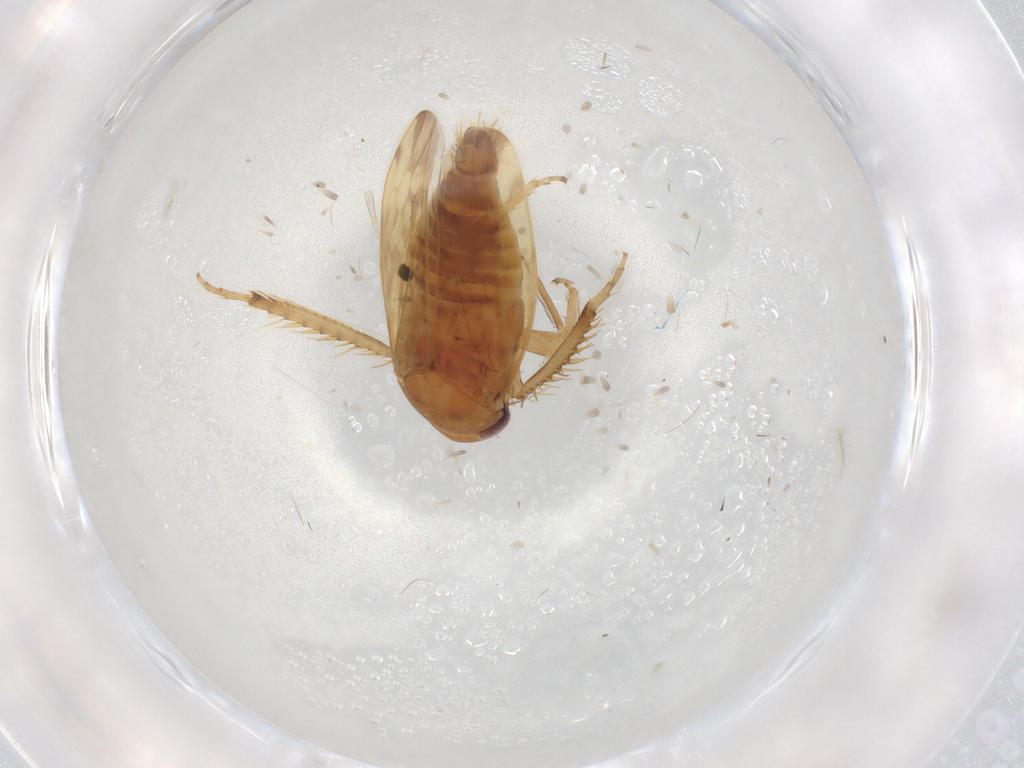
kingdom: Animalia
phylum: Arthropoda
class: Insecta
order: Hemiptera
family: Cicadellidae
